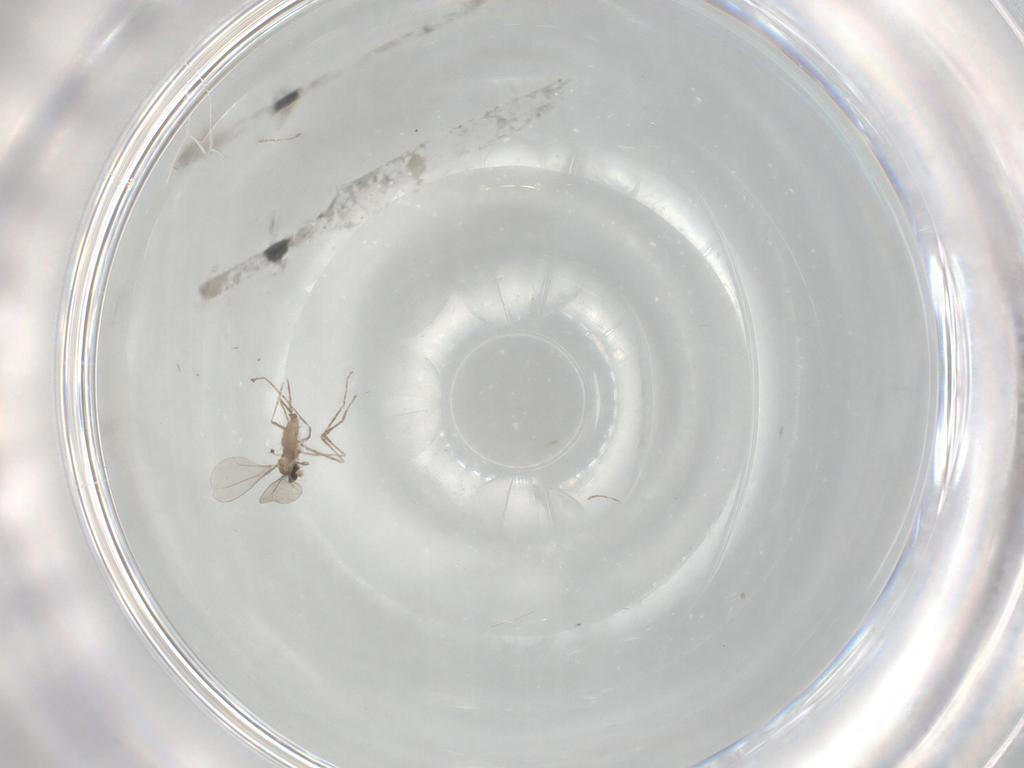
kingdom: Animalia
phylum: Arthropoda
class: Insecta
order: Diptera
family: Cecidomyiidae
